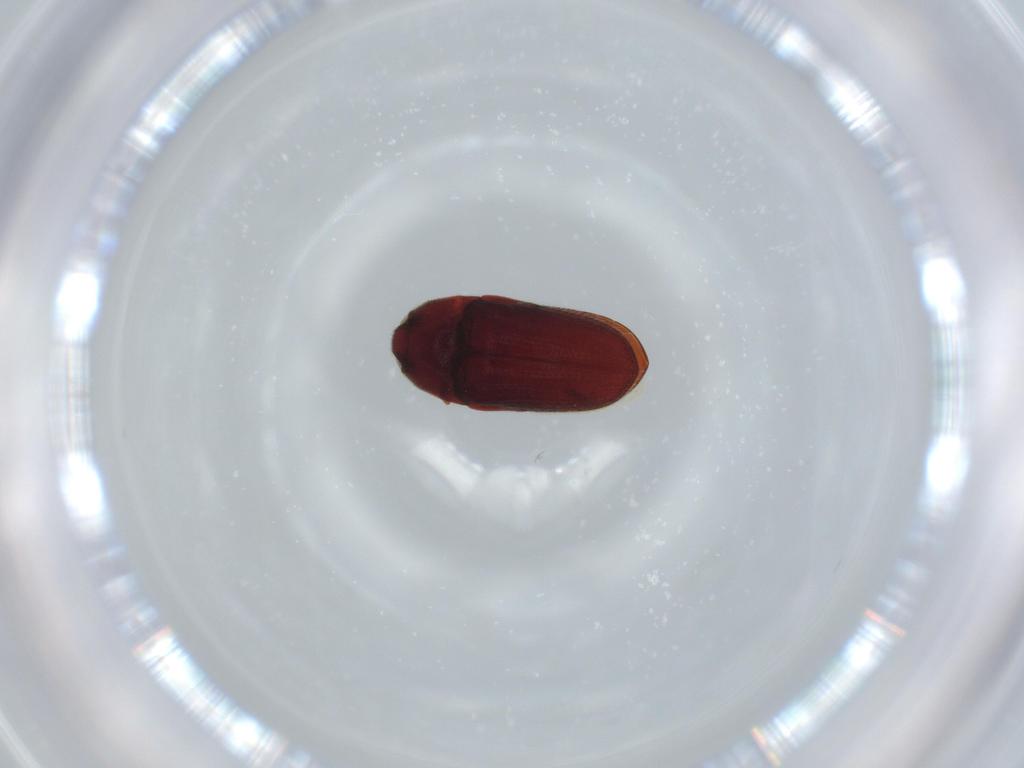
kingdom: Animalia
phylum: Arthropoda
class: Insecta
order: Coleoptera
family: Throscidae
